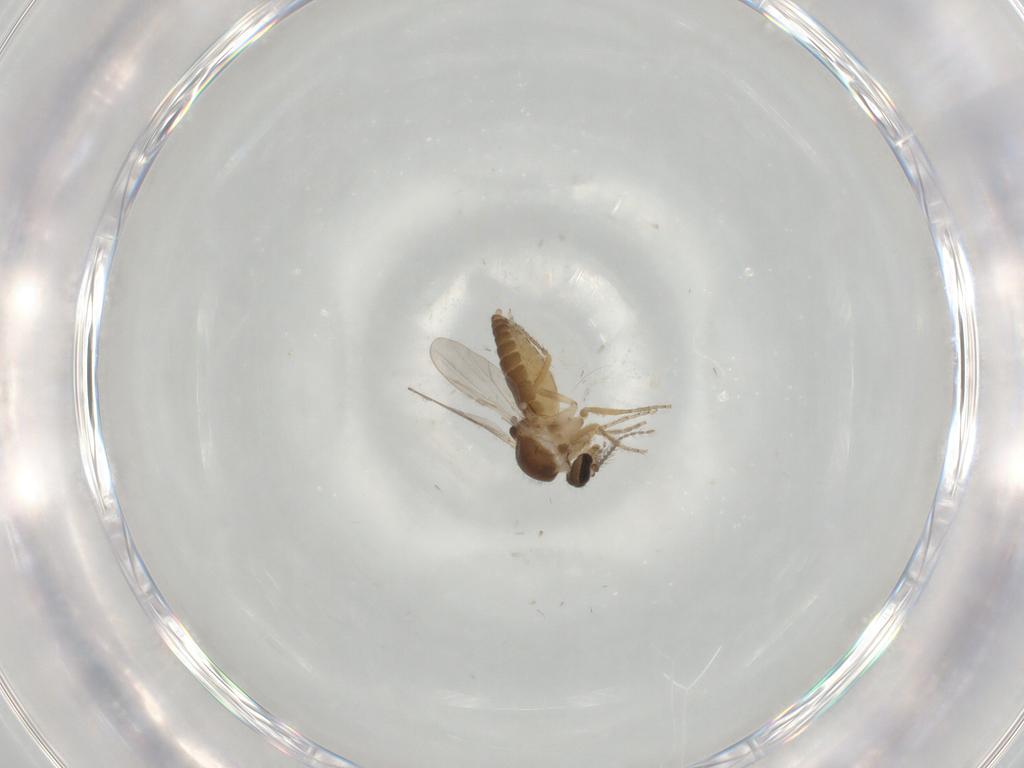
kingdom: Animalia
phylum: Arthropoda
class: Insecta
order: Diptera
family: Ceratopogonidae
